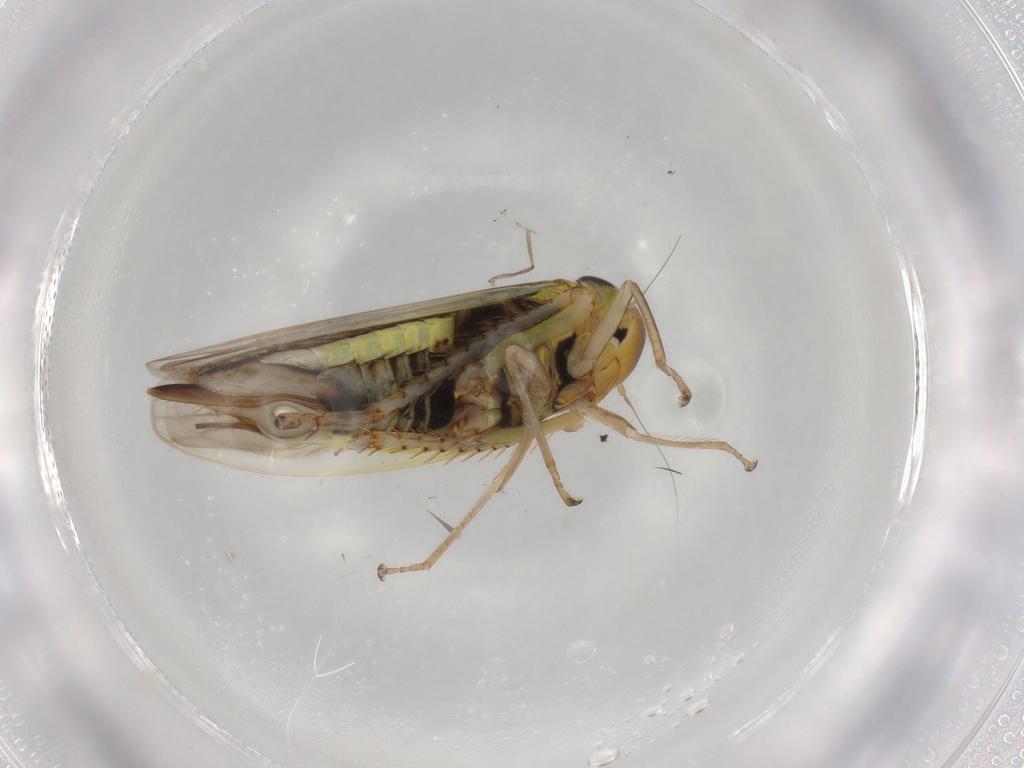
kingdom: Animalia
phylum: Arthropoda
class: Insecta
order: Hemiptera
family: Cicadellidae
